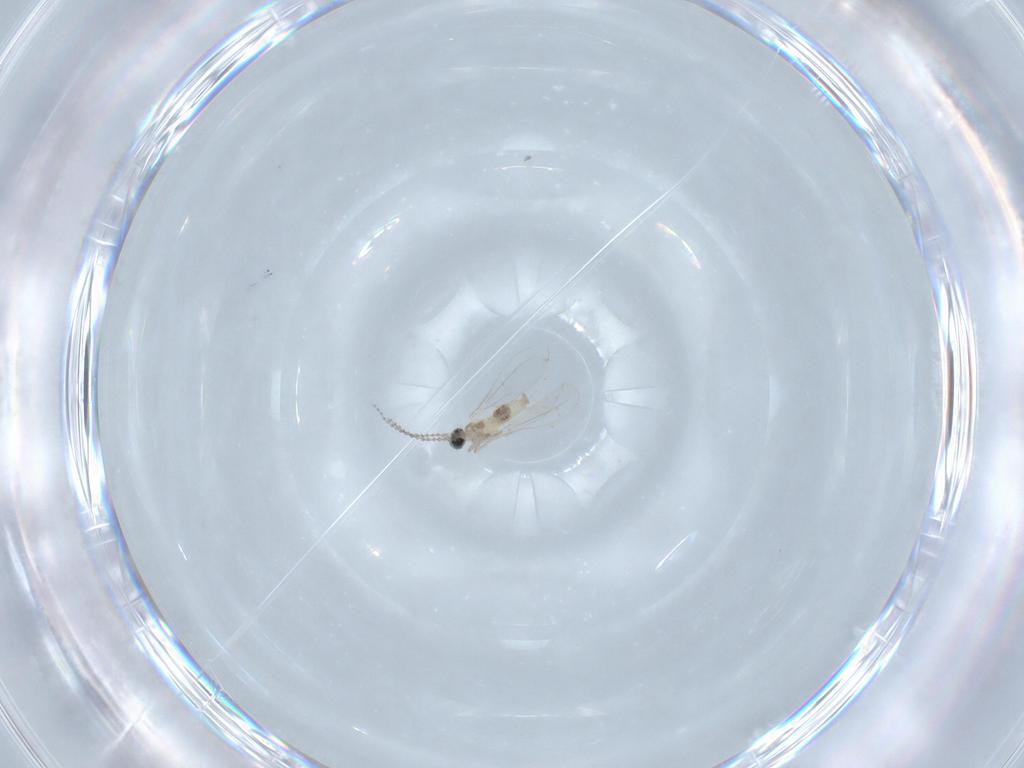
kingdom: Animalia
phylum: Arthropoda
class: Insecta
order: Diptera
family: Cecidomyiidae
